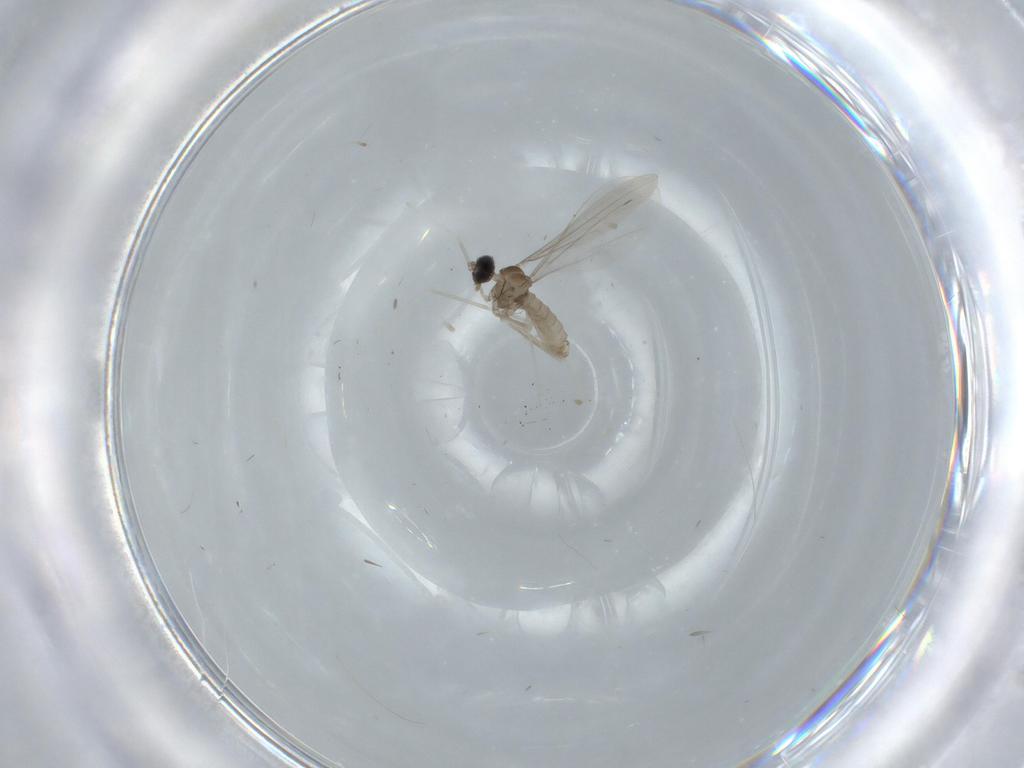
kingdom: Animalia
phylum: Arthropoda
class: Insecta
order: Diptera
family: Cecidomyiidae
